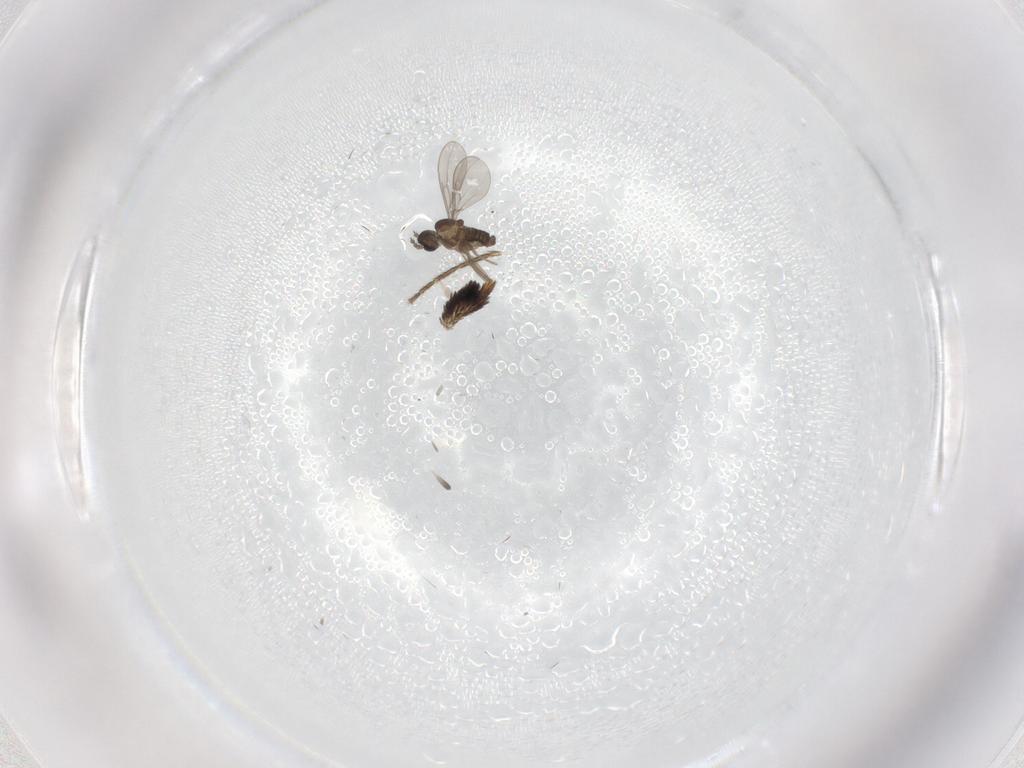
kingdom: Animalia
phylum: Arthropoda
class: Insecta
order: Diptera
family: Mycetophilidae
